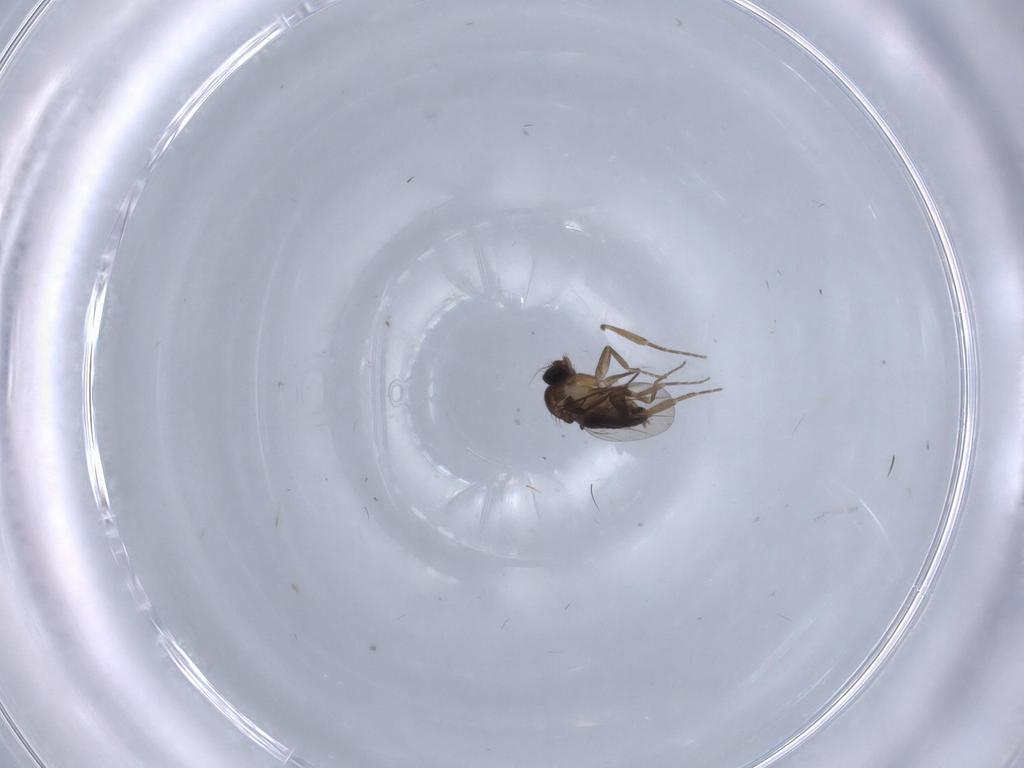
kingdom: Animalia
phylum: Arthropoda
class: Insecta
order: Diptera
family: Phoridae
